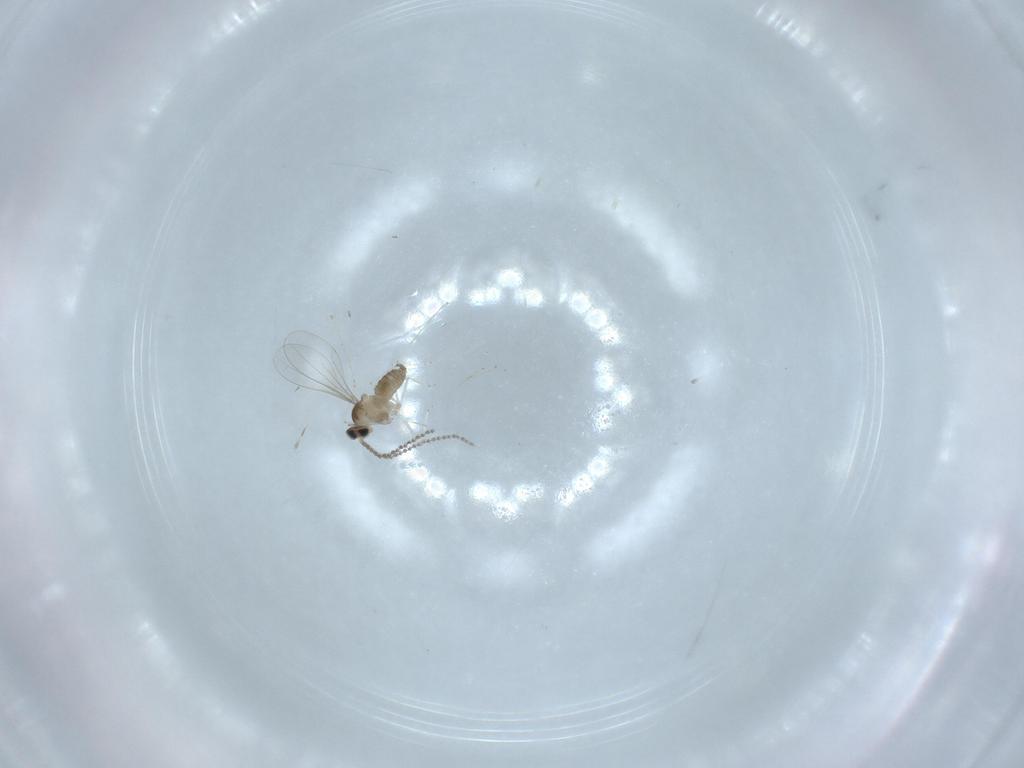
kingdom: Animalia
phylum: Arthropoda
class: Insecta
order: Diptera
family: Cecidomyiidae
